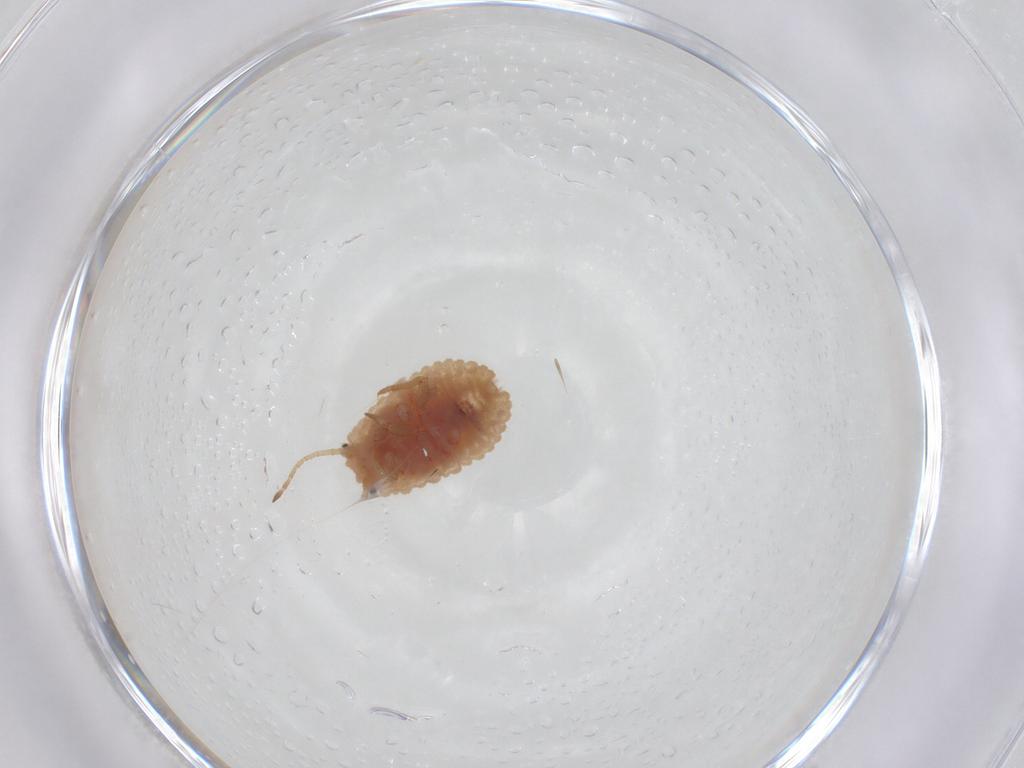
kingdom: Animalia
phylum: Arthropoda
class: Insecta
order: Hemiptera
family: Coccoidea_incertae_sedis
